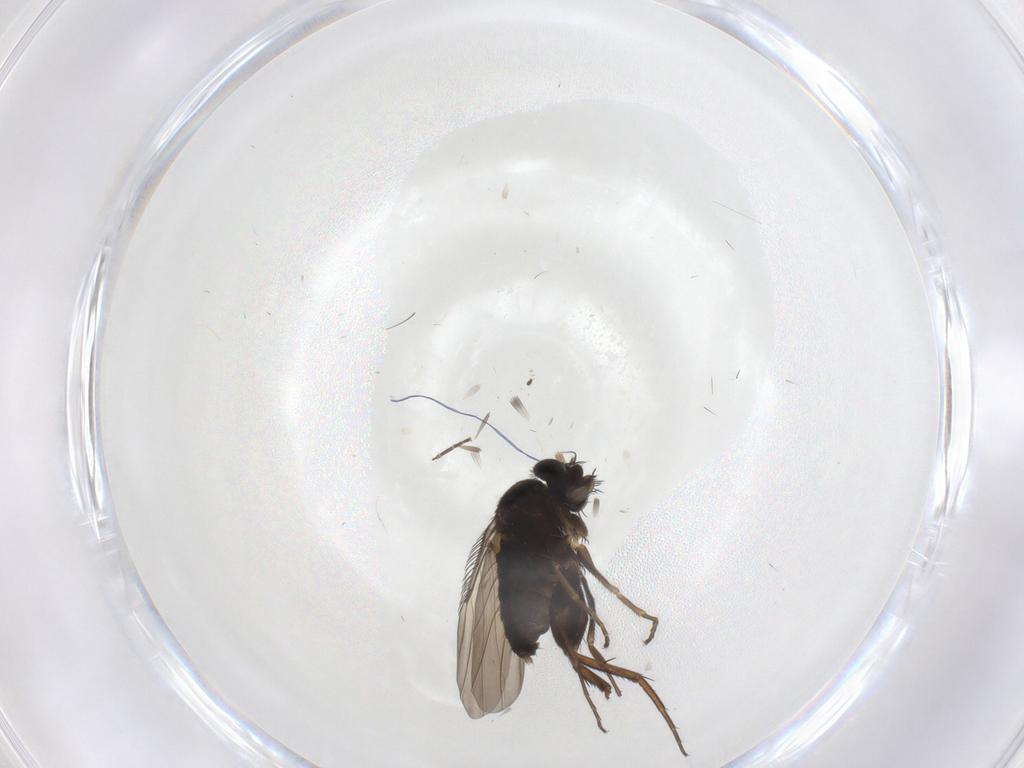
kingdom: Animalia
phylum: Arthropoda
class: Insecta
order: Diptera
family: Phoridae
